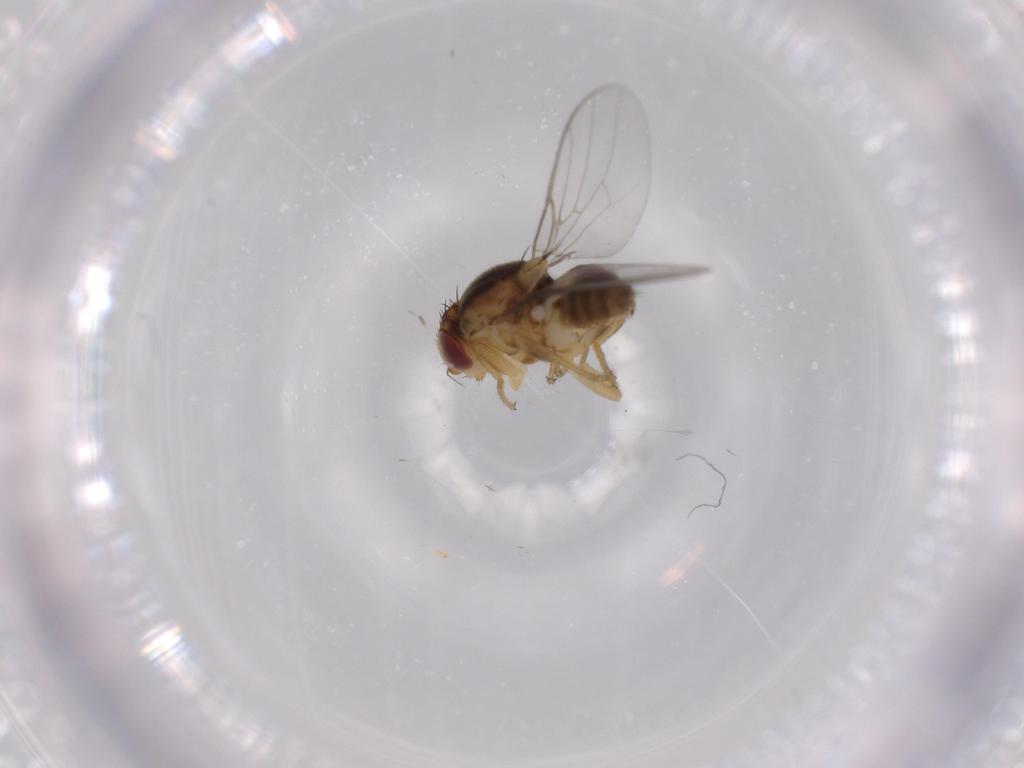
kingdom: Animalia
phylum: Arthropoda
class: Insecta
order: Diptera
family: Chloropidae
